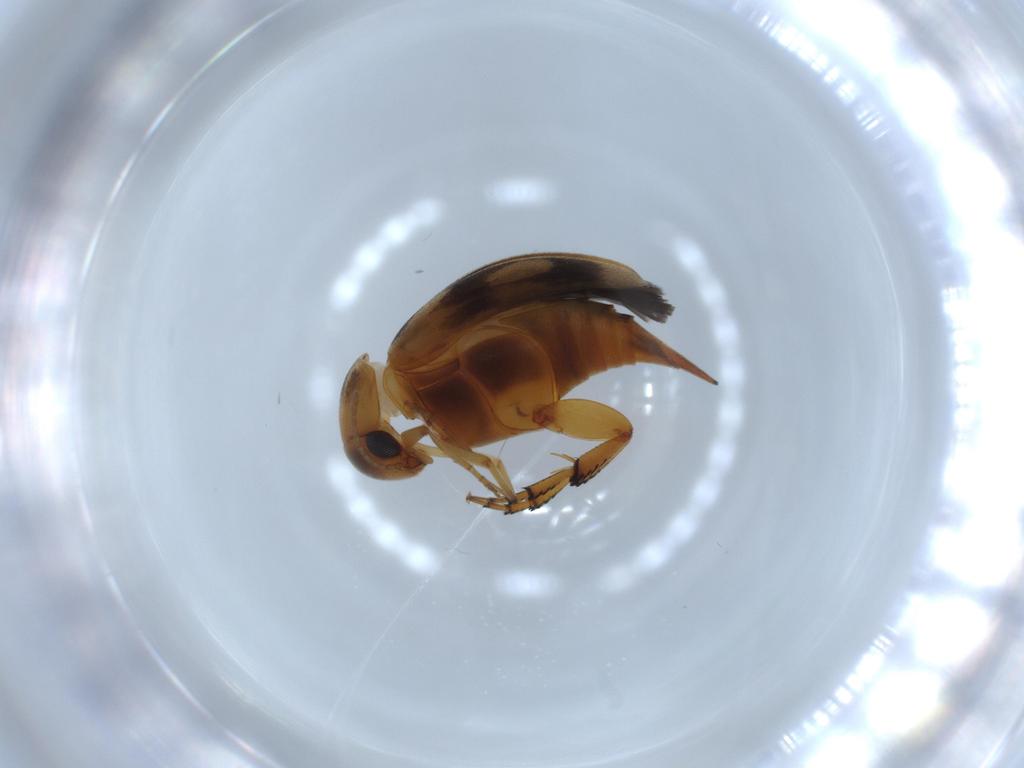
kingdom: Animalia
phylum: Arthropoda
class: Insecta
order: Coleoptera
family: Mordellidae
